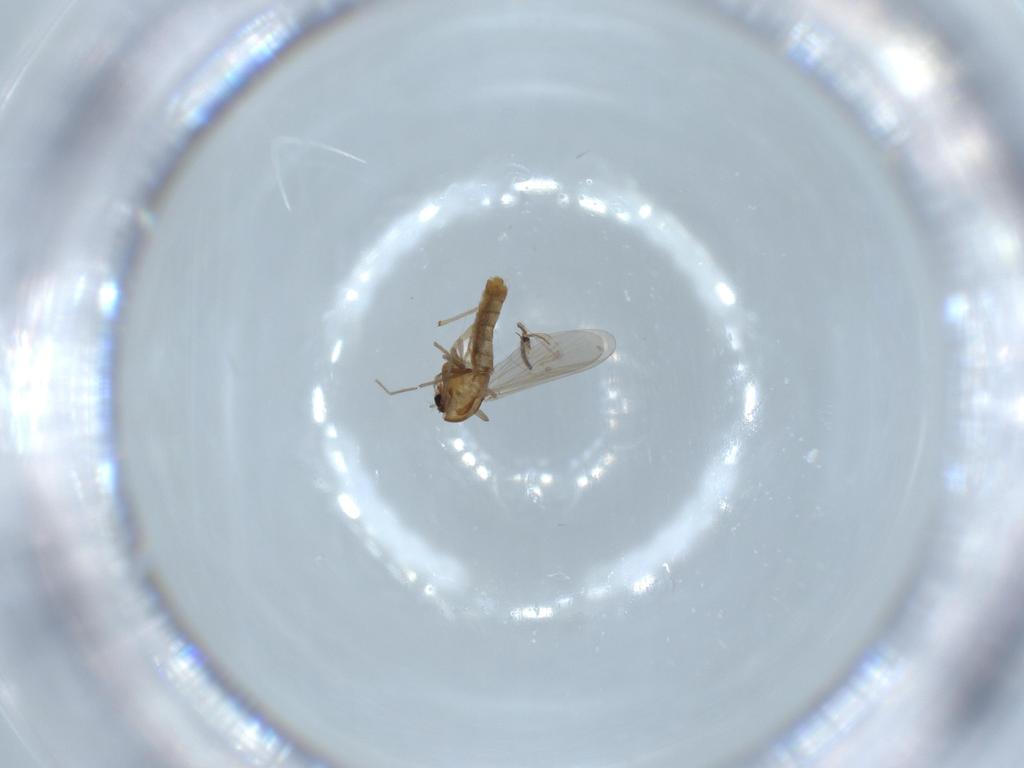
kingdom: Animalia
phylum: Arthropoda
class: Insecta
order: Diptera
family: Chironomidae
